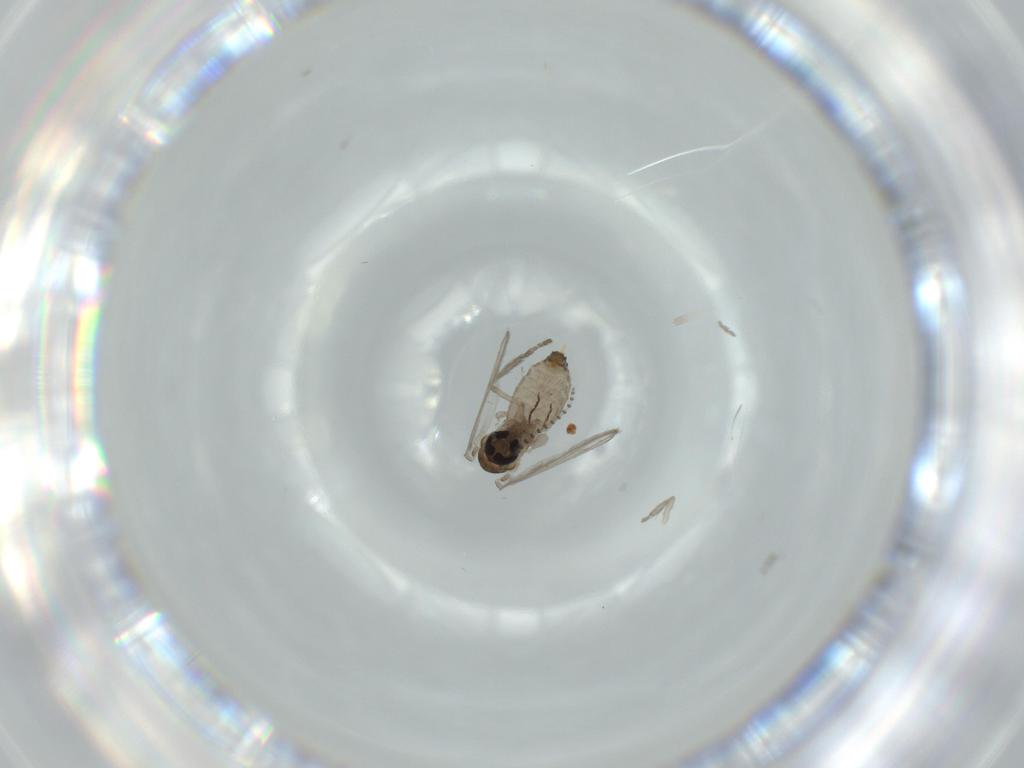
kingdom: Animalia
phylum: Arthropoda
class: Insecta
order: Diptera
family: Psychodidae
